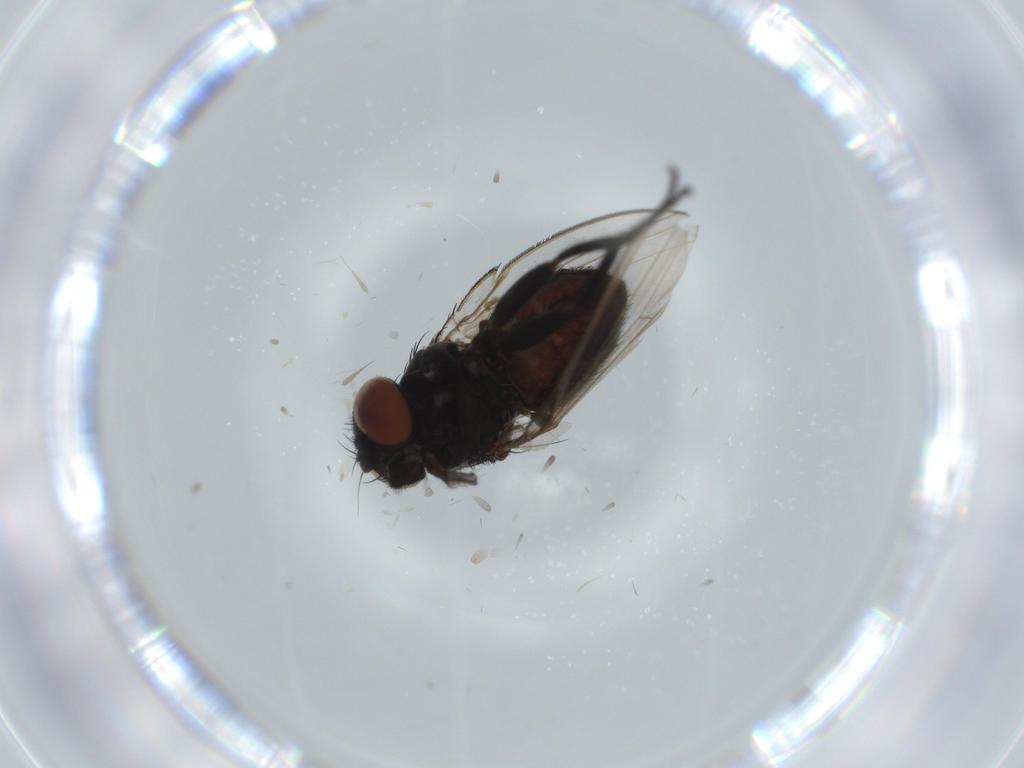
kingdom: Animalia
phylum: Arthropoda
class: Insecta
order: Diptera
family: Milichiidae
